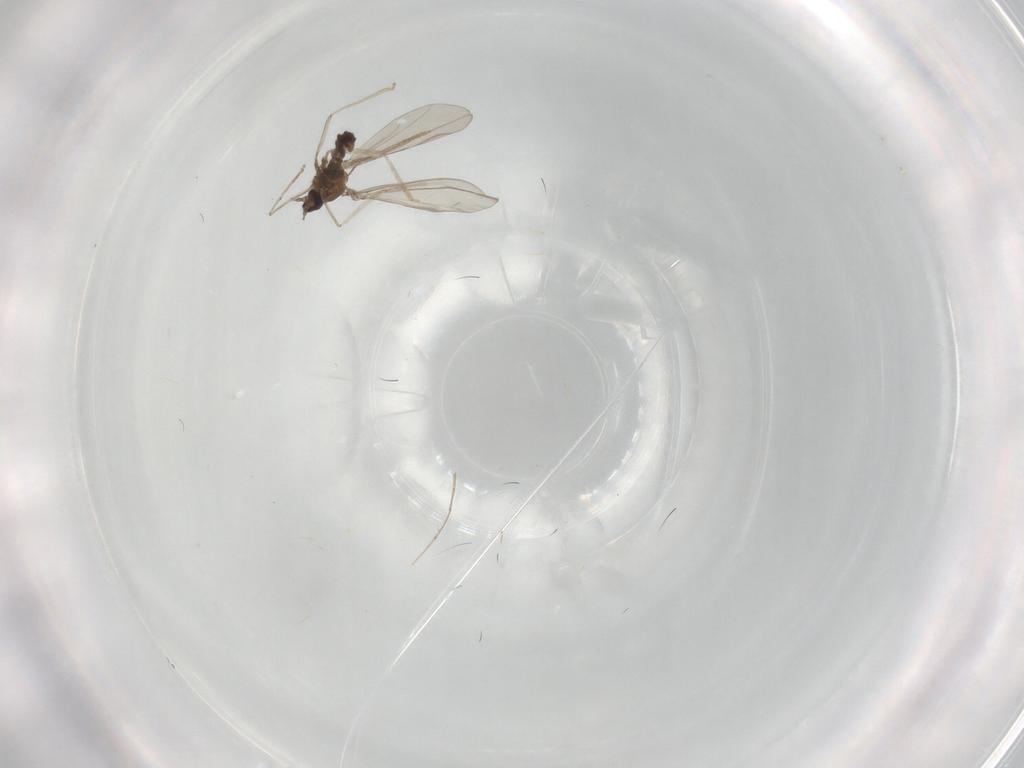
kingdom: Animalia
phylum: Arthropoda
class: Insecta
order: Diptera
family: Cecidomyiidae
